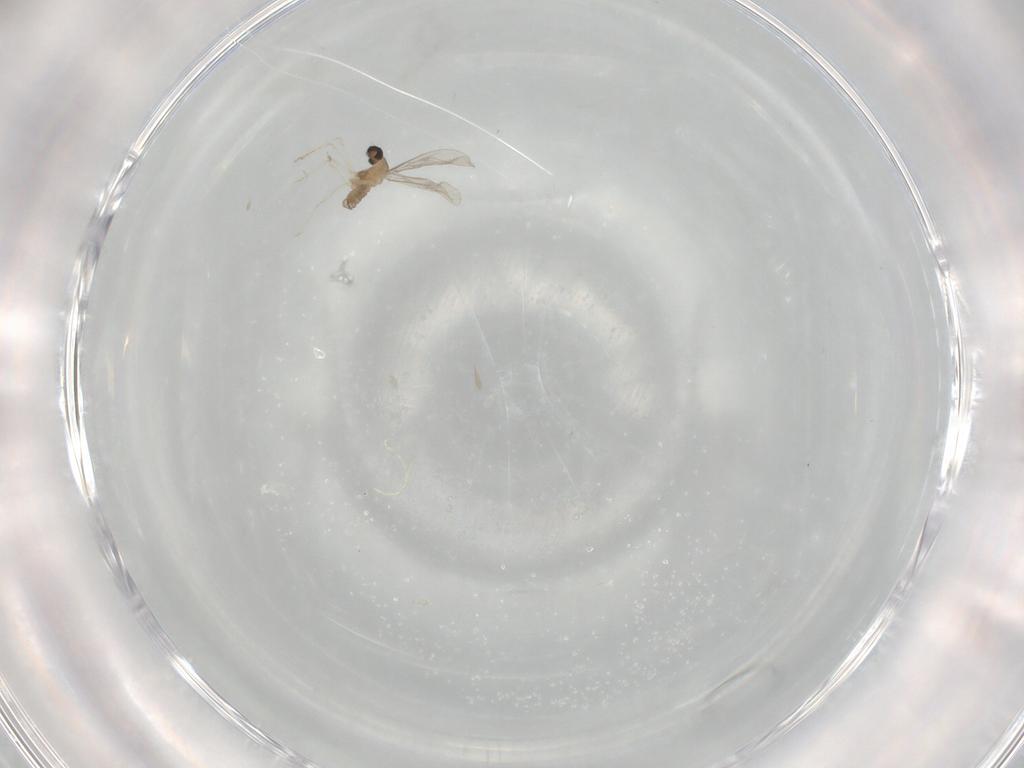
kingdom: Animalia
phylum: Arthropoda
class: Insecta
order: Diptera
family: Cecidomyiidae
